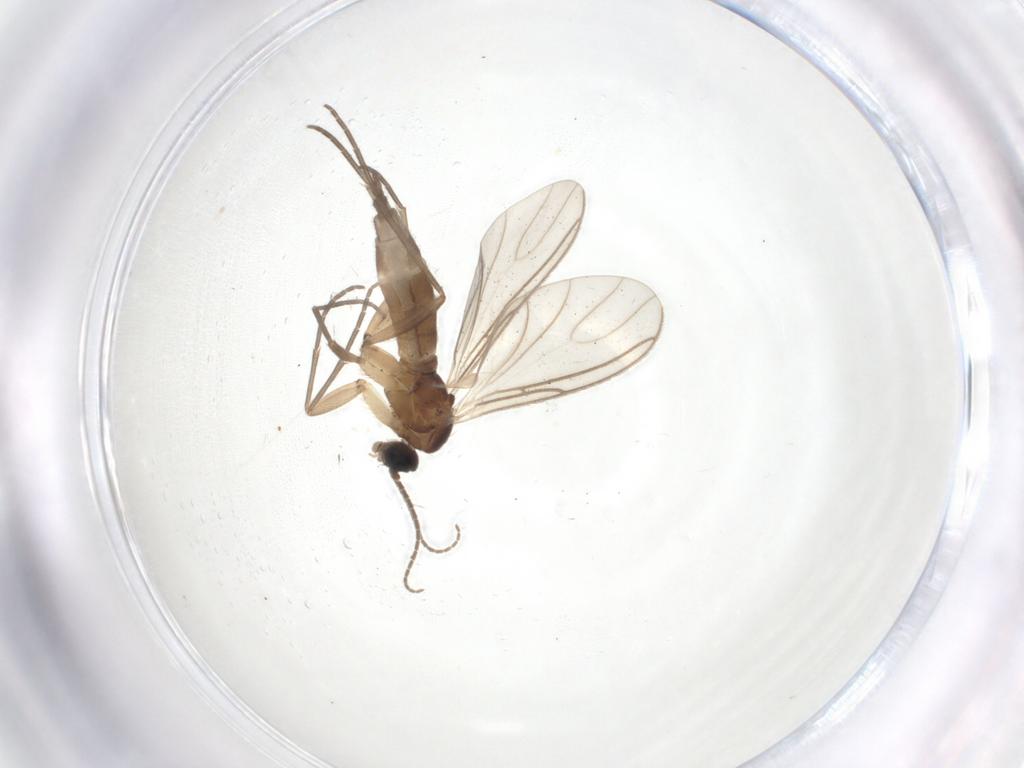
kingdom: Animalia
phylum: Arthropoda
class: Insecta
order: Diptera
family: Sciaridae
